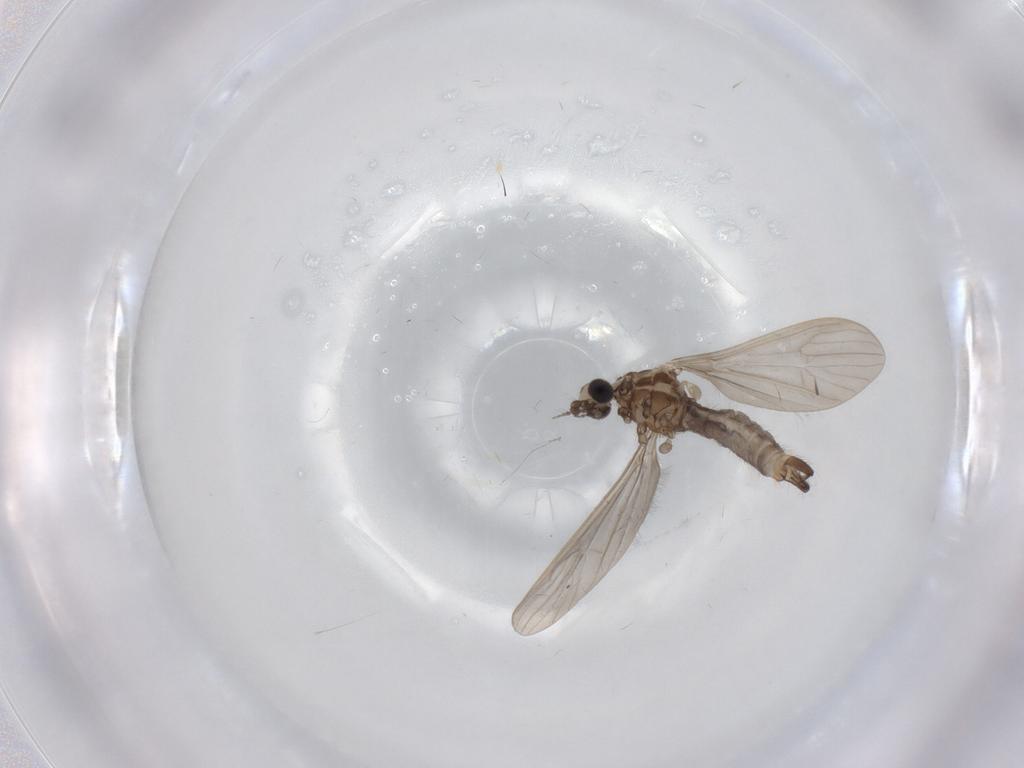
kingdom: Animalia
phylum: Arthropoda
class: Insecta
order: Diptera
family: Limoniidae
